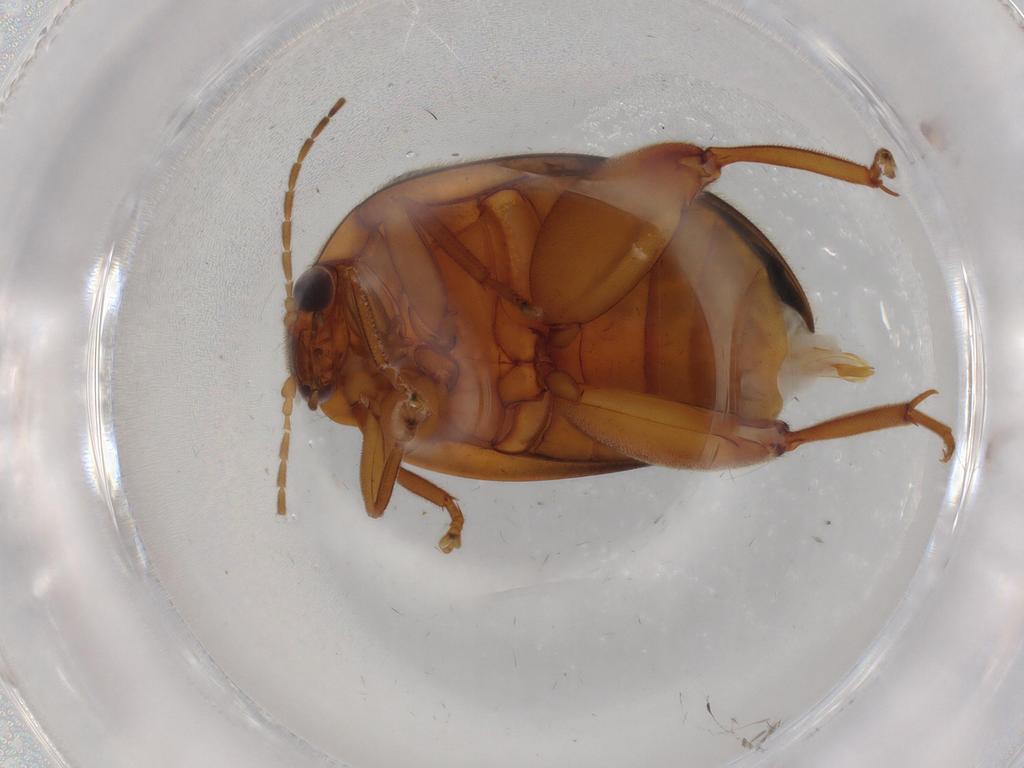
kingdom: Animalia
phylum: Arthropoda
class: Insecta
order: Coleoptera
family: Scirtidae
